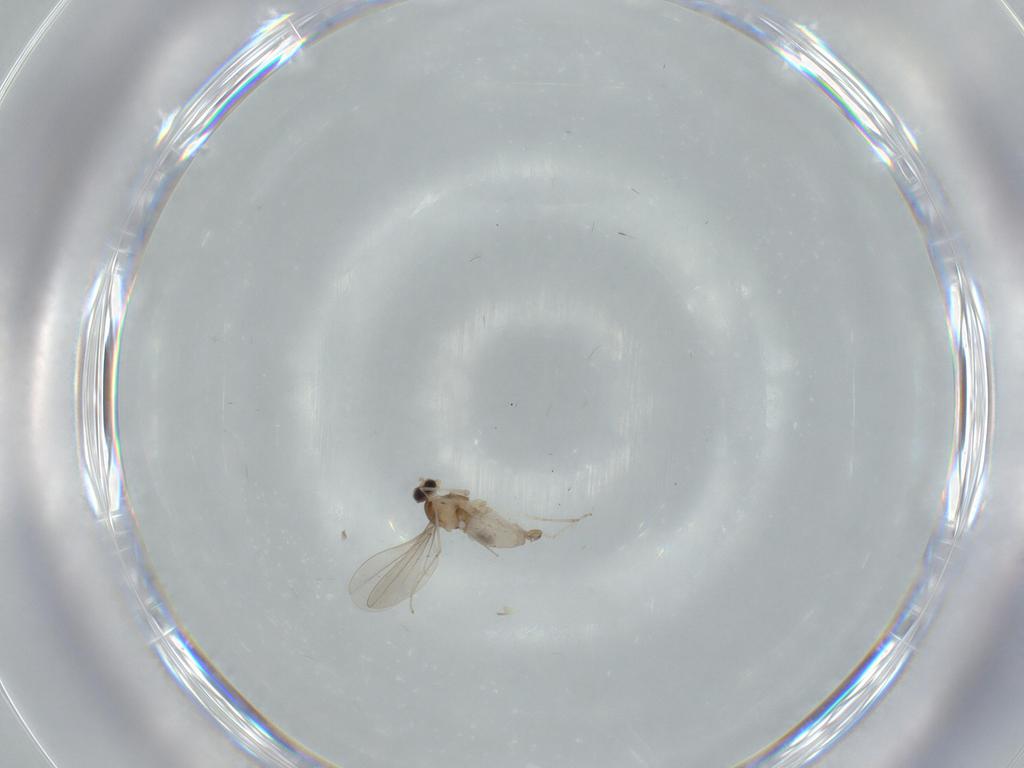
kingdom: Animalia
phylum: Arthropoda
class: Insecta
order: Diptera
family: Cecidomyiidae
